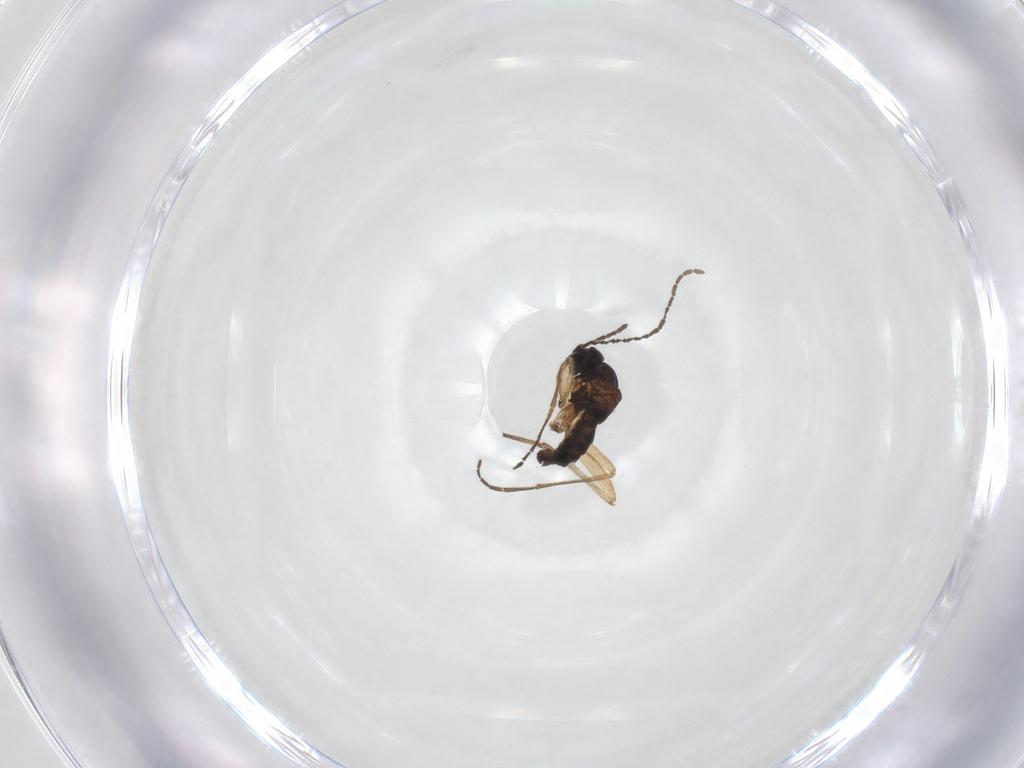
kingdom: Animalia
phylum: Arthropoda
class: Insecta
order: Diptera
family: Sciaridae
